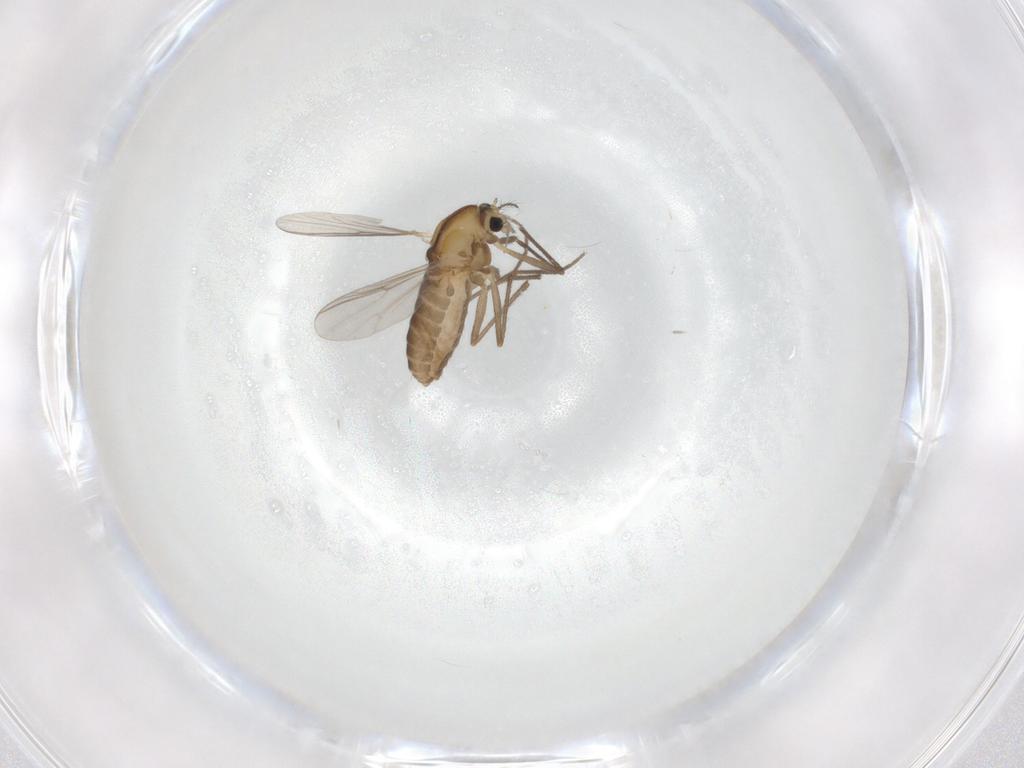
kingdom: Animalia
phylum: Arthropoda
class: Insecta
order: Diptera
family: Chironomidae
